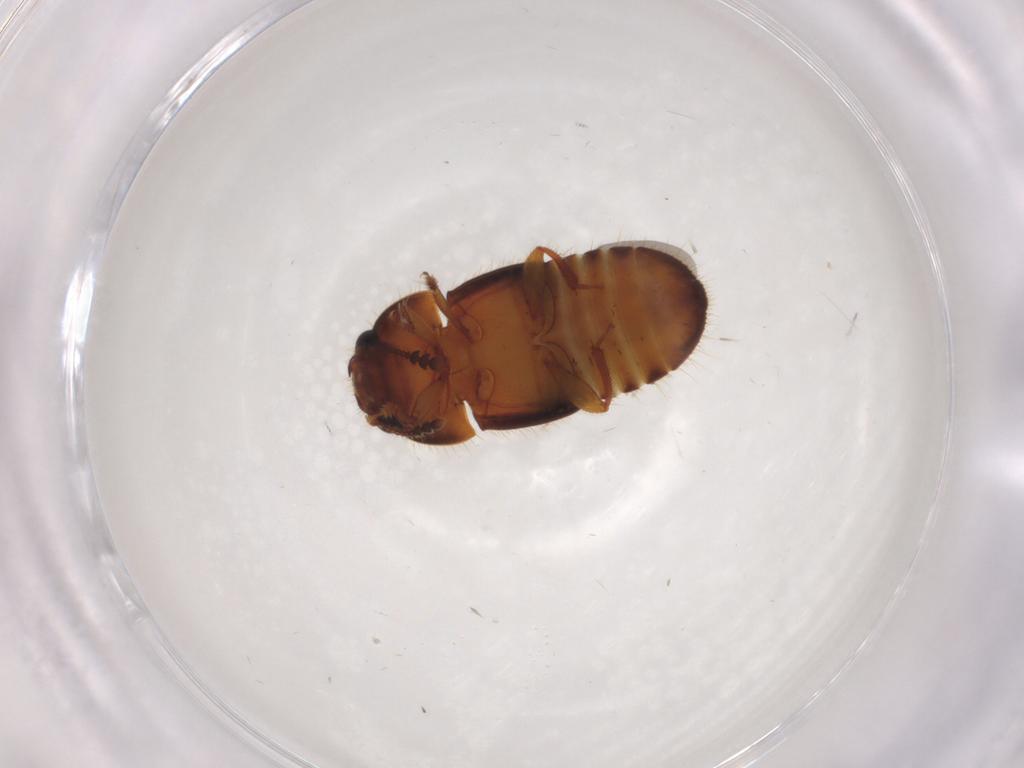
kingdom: Animalia
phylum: Arthropoda
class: Insecta
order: Coleoptera
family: Nitidulidae
